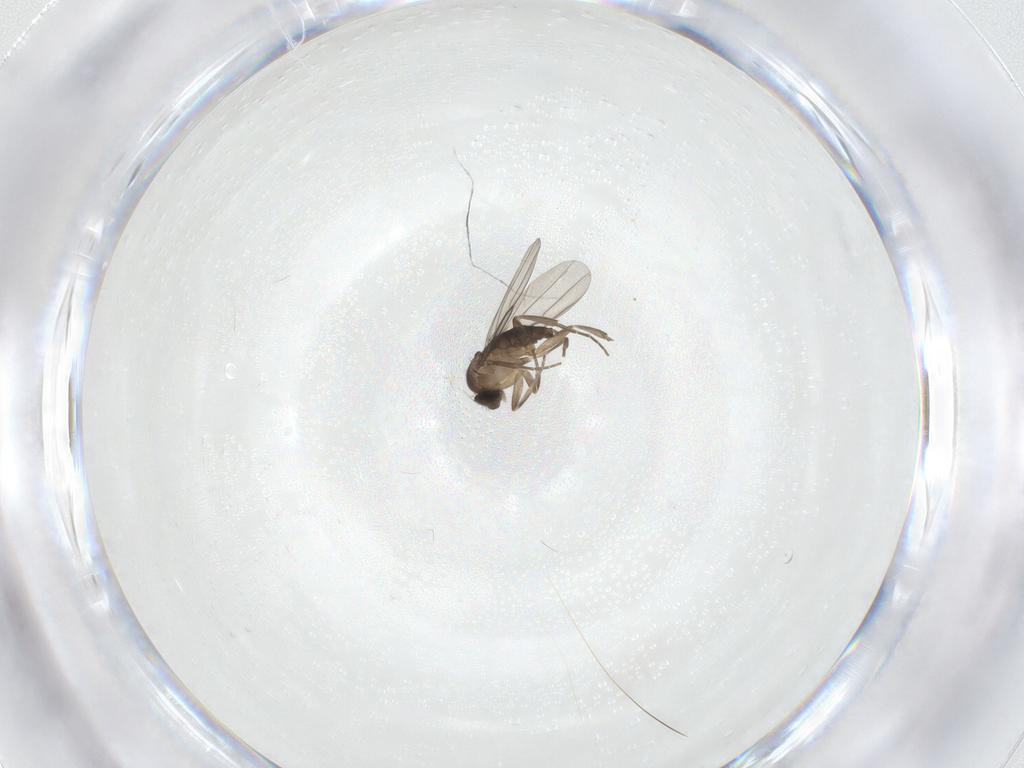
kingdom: Animalia
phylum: Arthropoda
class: Insecta
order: Diptera
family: Phoridae
